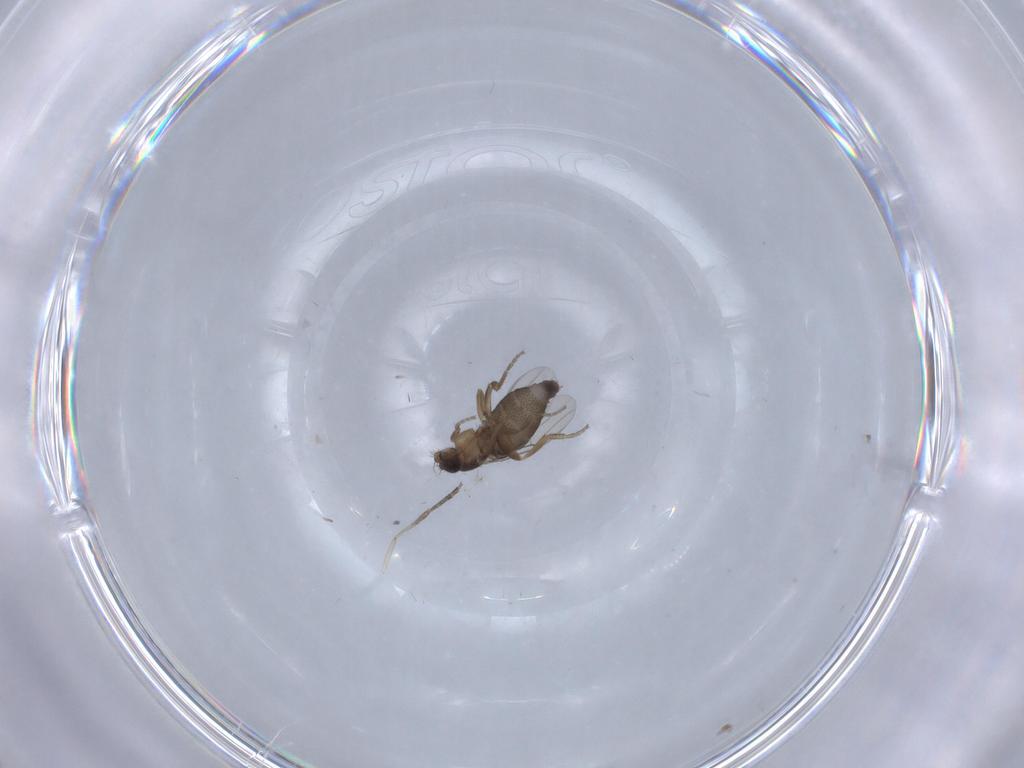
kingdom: Animalia
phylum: Arthropoda
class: Insecta
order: Diptera
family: Phoridae
